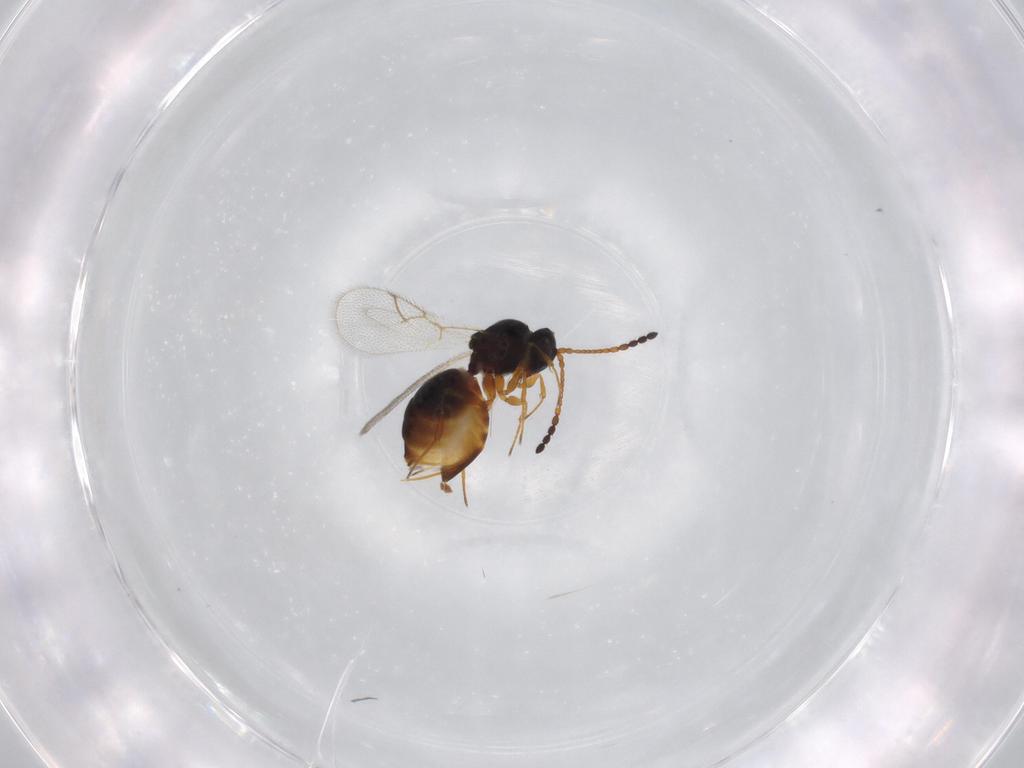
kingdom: Animalia
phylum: Arthropoda
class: Insecta
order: Hymenoptera
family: Figitidae
